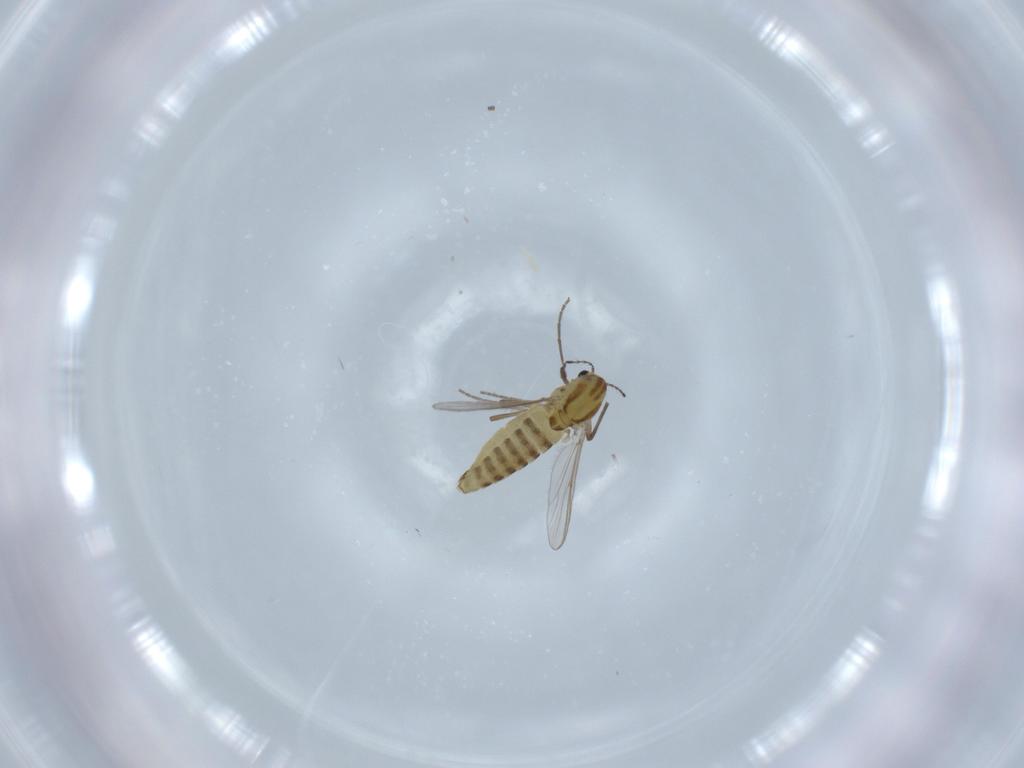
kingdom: Animalia
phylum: Arthropoda
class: Insecta
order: Diptera
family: Chironomidae
